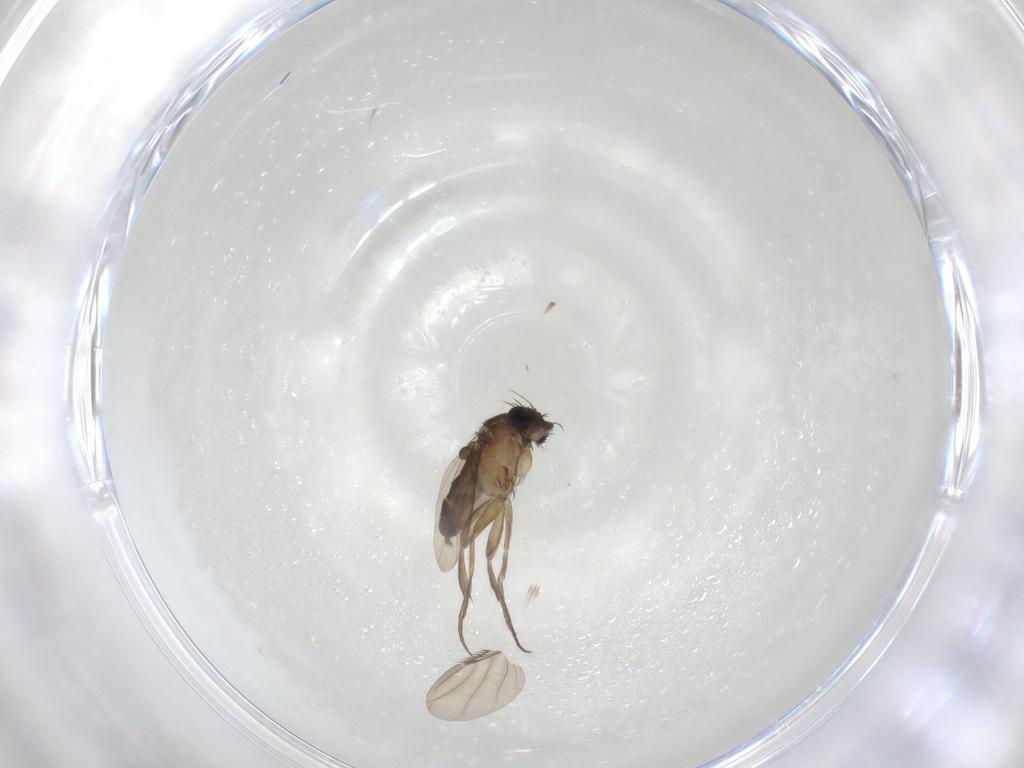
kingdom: Animalia
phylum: Arthropoda
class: Insecta
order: Diptera
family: Phoridae
